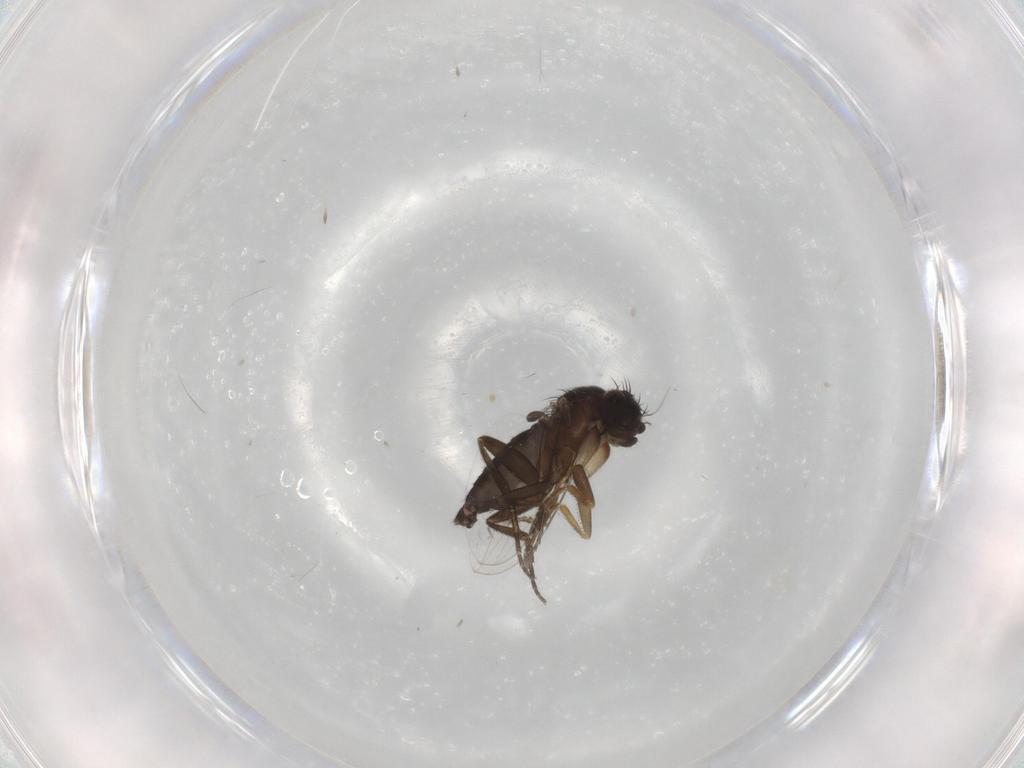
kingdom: Animalia
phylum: Arthropoda
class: Insecta
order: Diptera
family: Phoridae
